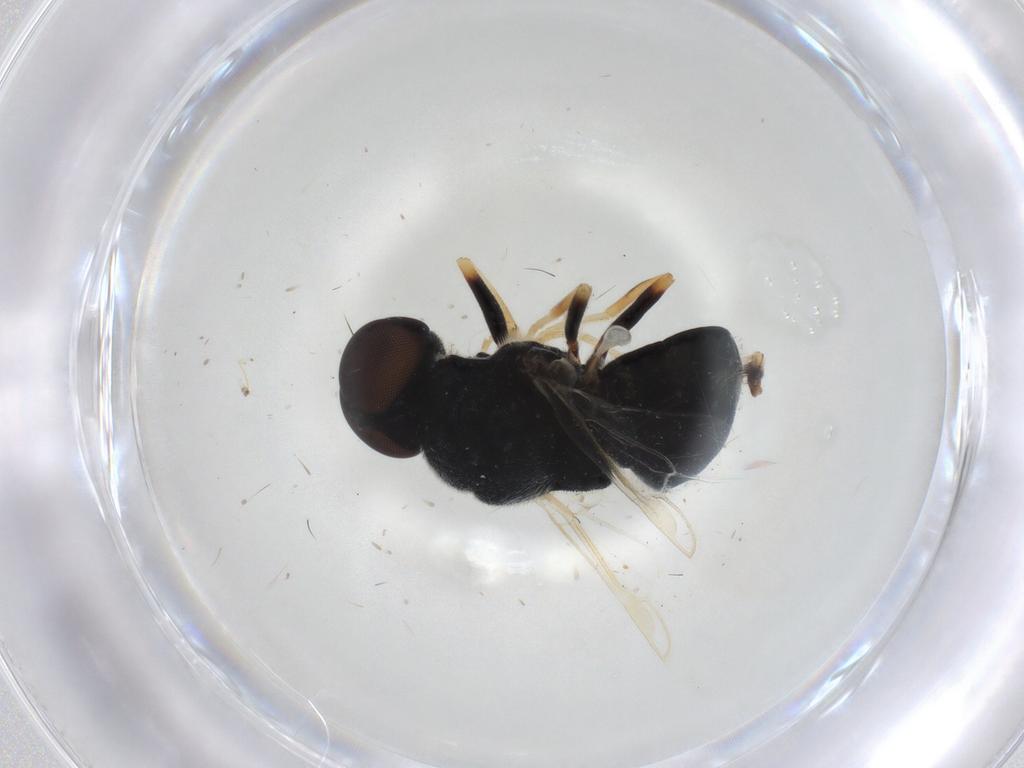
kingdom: Animalia
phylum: Arthropoda
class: Insecta
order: Diptera
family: Stratiomyidae
